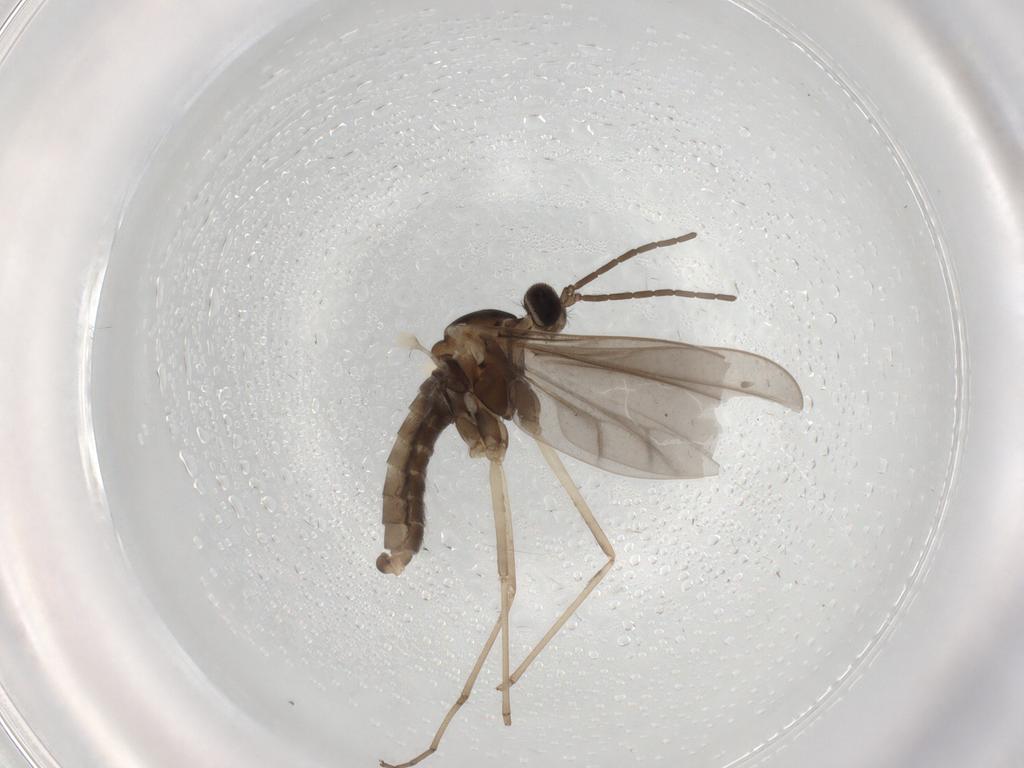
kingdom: Animalia
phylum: Arthropoda
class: Insecta
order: Diptera
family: Cecidomyiidae
